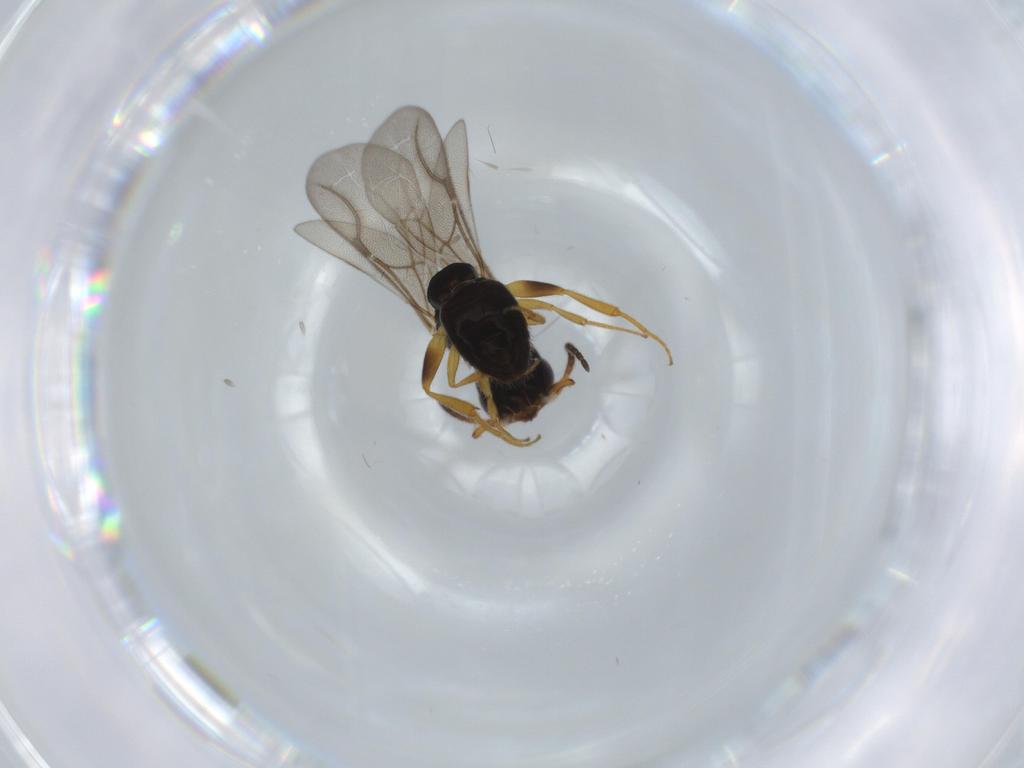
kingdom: Animalia
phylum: Arthropoda
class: Insecta
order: Hymenoptera
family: Bethylidae
